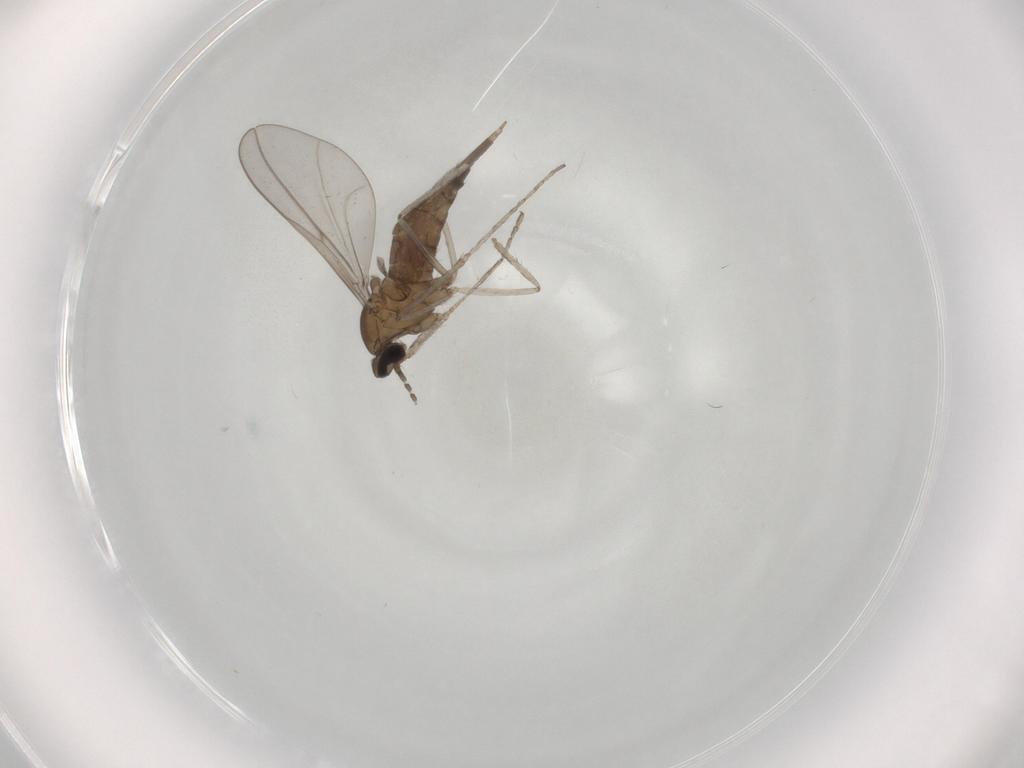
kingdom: Animalia
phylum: Arthropoda
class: Insecta
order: Diptera
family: Cecidomyiidae
